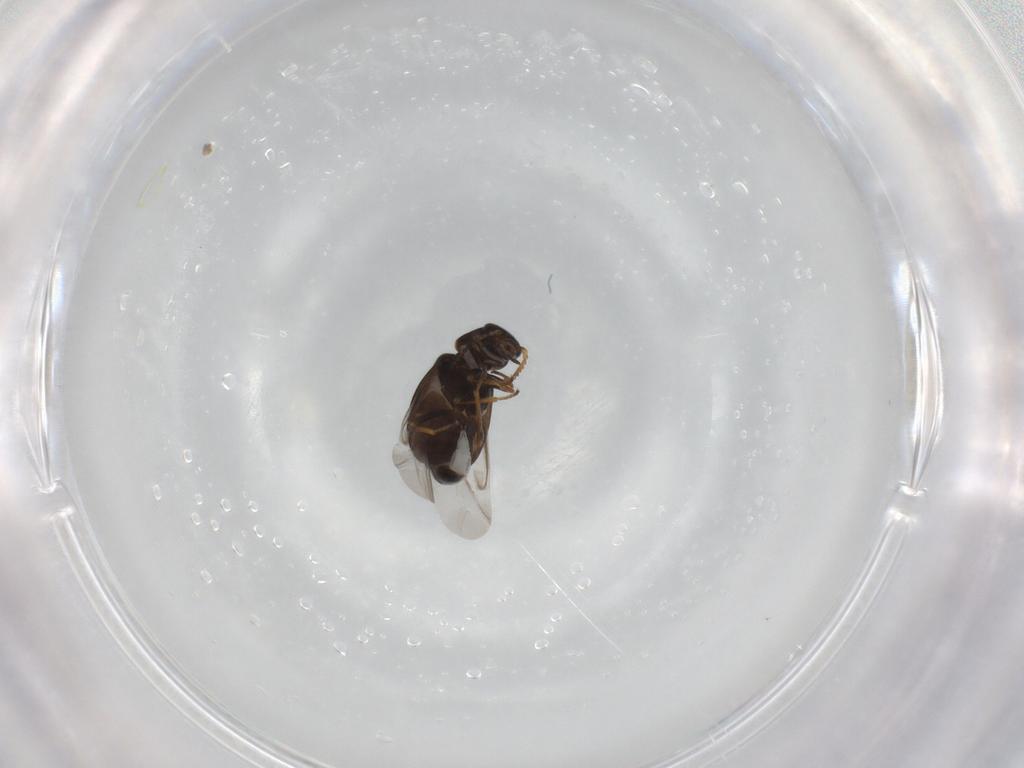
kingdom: Animalia
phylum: Arthropoda
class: Insecta
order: Coleoptera
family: Melyridae
